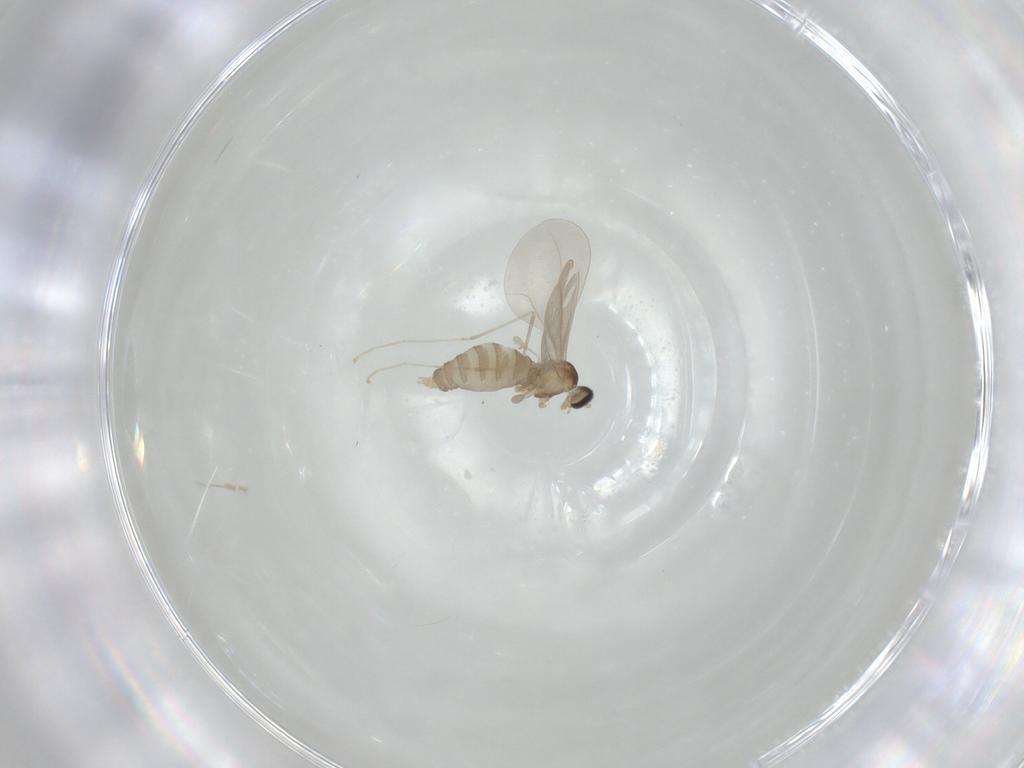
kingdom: Animalia
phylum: Arthropoda
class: Insecta
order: Diptera
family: Cecidomyiidae
